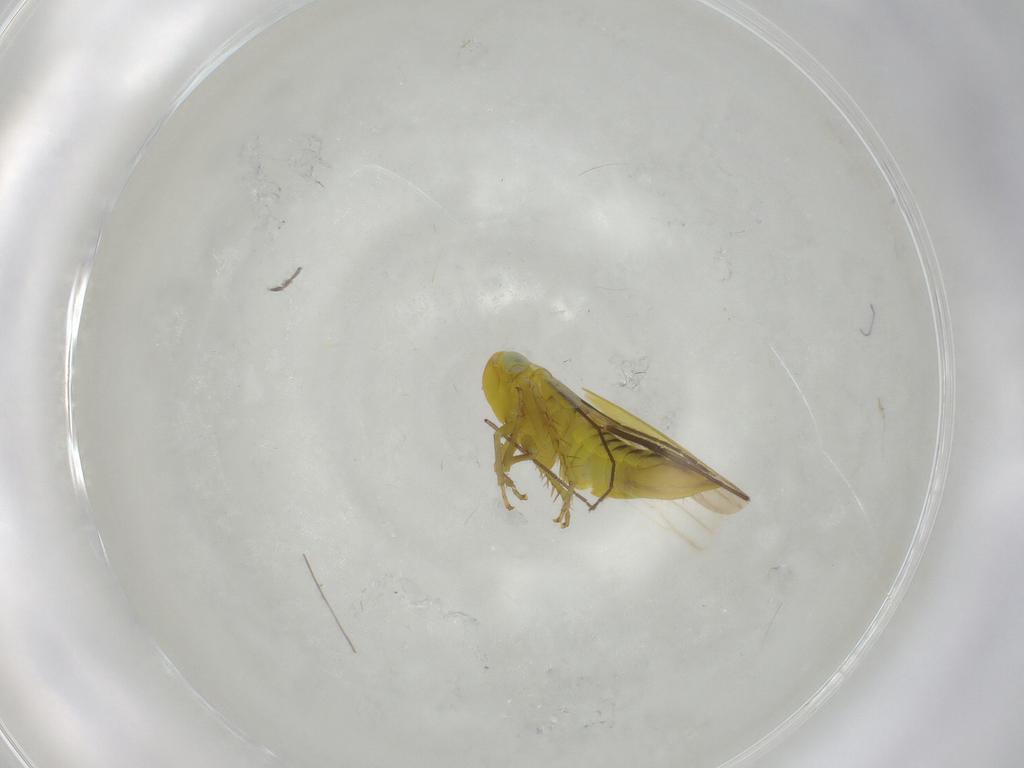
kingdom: Animalia
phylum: Arthropoda
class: Insecta
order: Hemiptera
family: Cicadellidae
